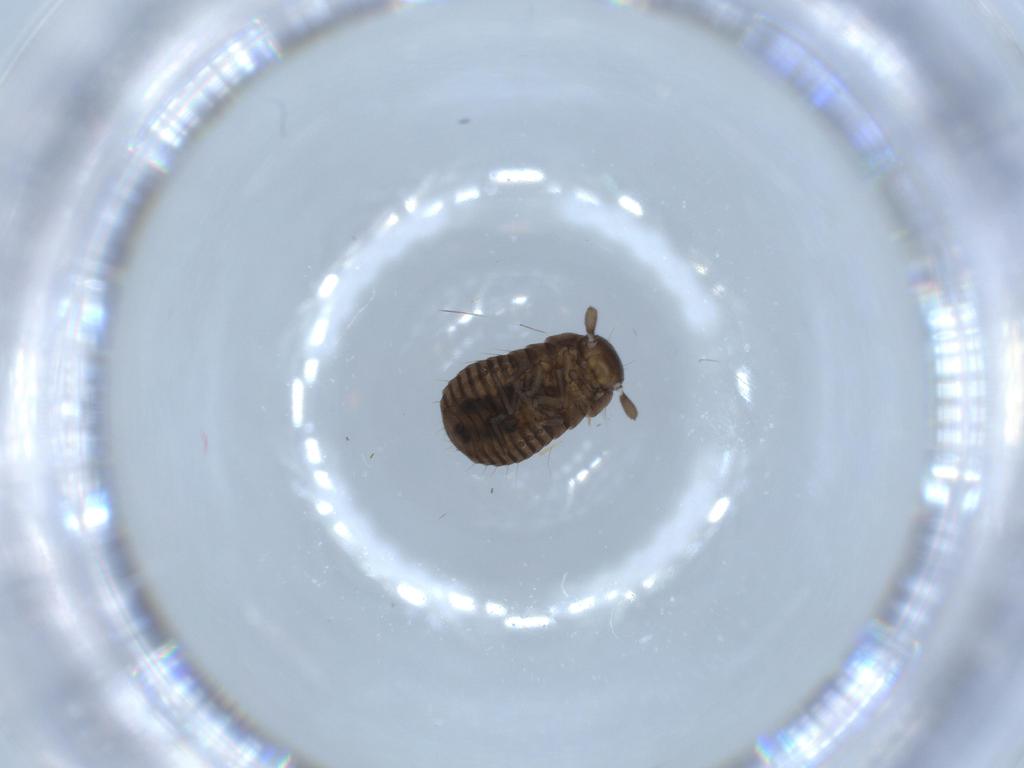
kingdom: Animalia
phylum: Arthropoda
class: Insecta
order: Coleoptera
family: Tenebrionidae
